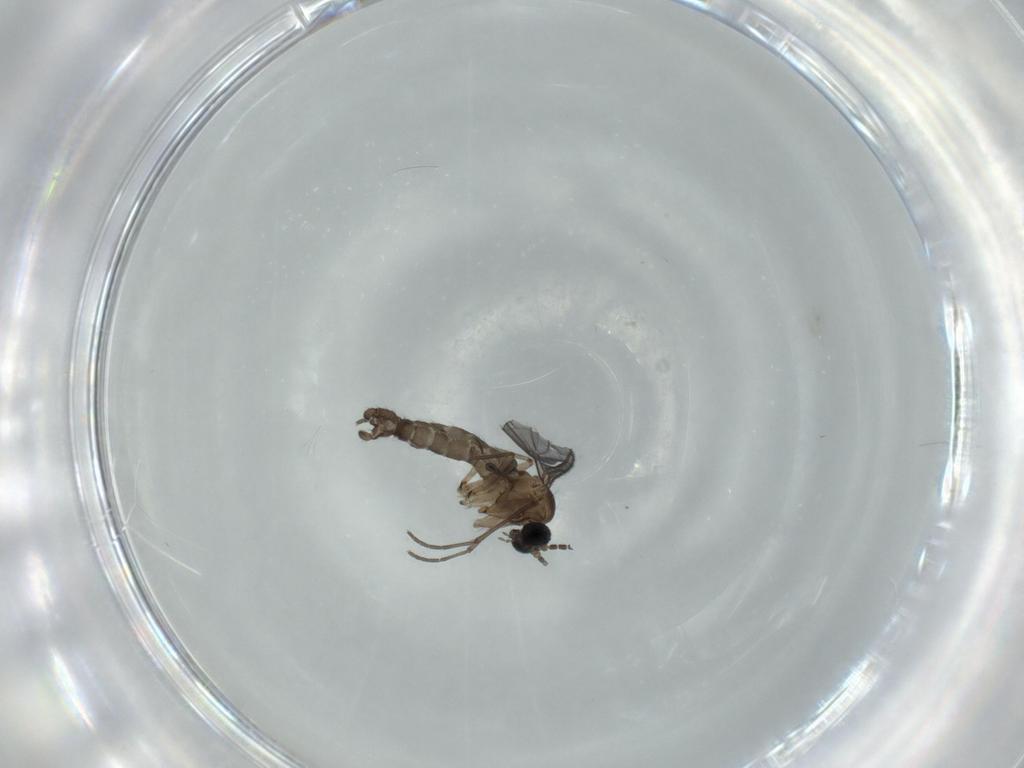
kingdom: Animalia
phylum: Arthropoda
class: Insecta
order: Diptera
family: Sciaridae
